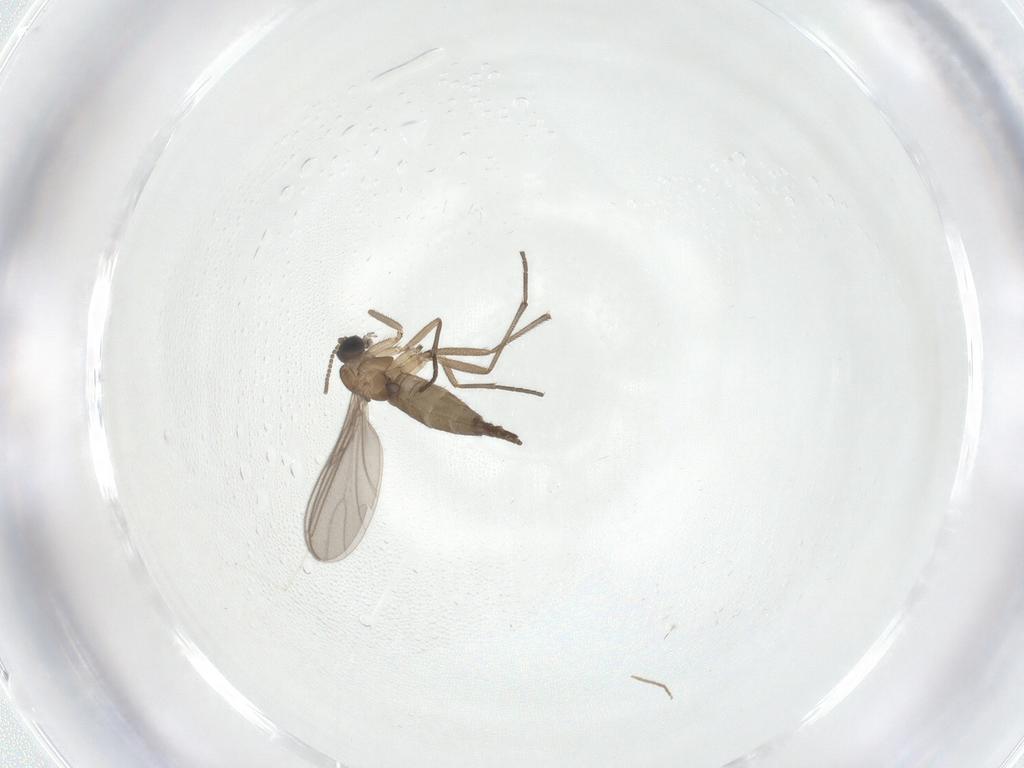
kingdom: Animalia
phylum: Arthropoda
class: Insecta
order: Diptera
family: Sciaridae
